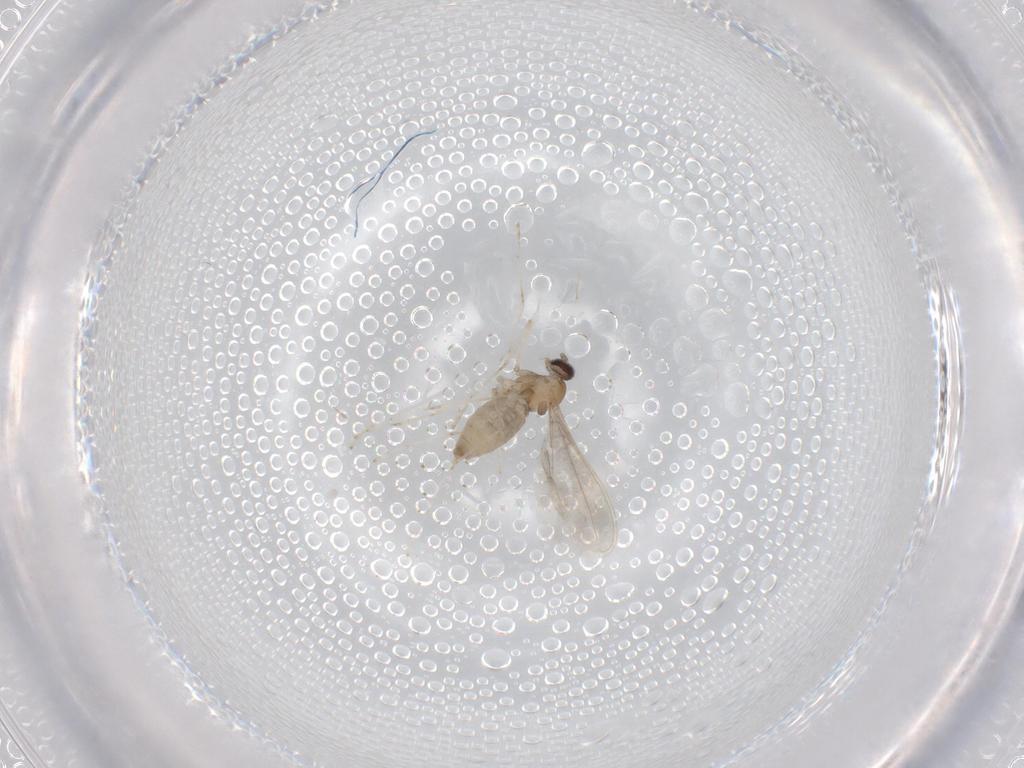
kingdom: Animalia
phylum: Arthropoda
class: Insecta
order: Diptera
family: Cecidomyiidae
